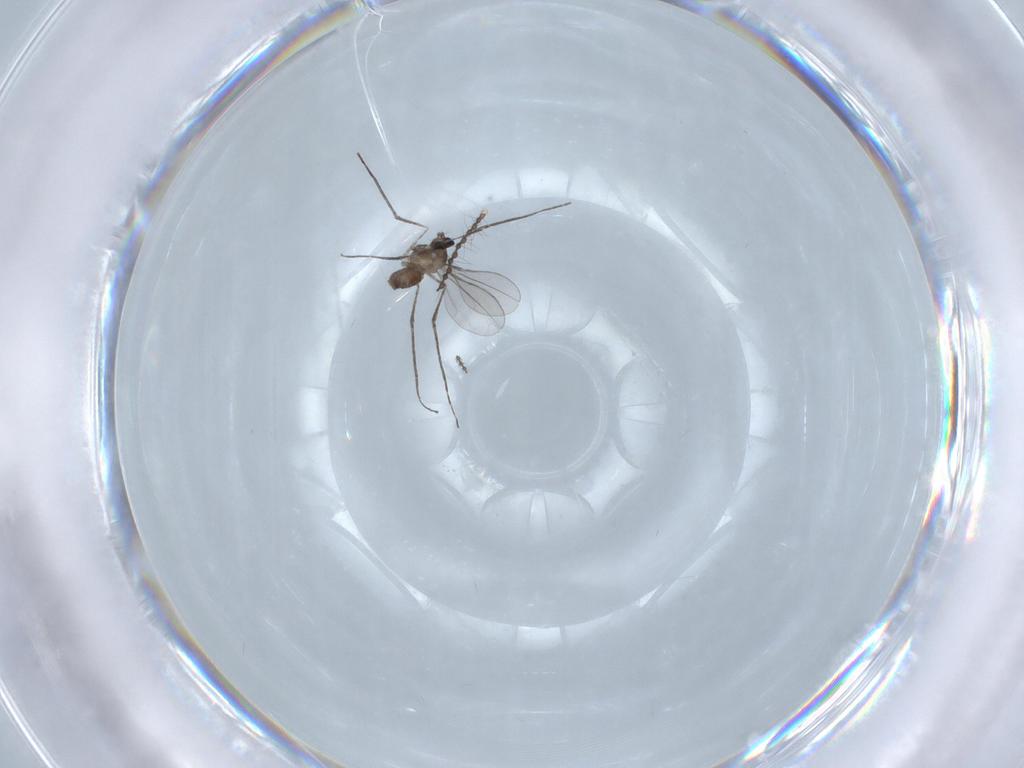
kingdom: Animalia
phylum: Arthropoda
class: Insecta
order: Diptera
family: Cecidomyiidae
